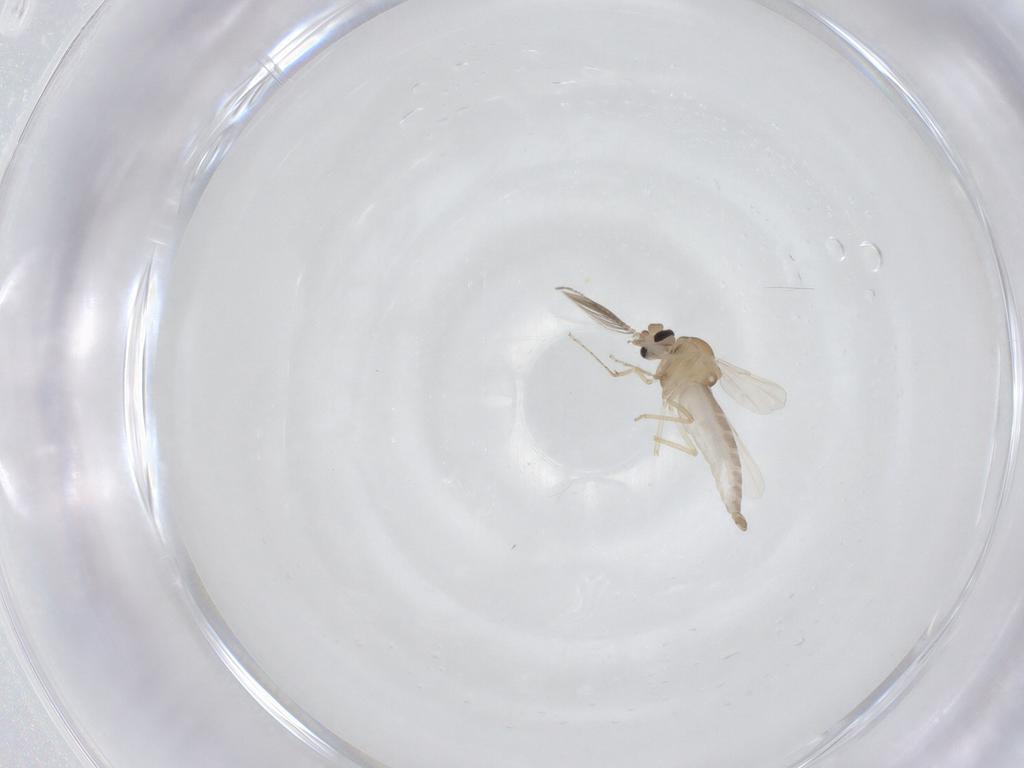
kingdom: Animalia
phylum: Arthropoda
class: Insecta
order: Diptera
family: Ceratopogonidae
